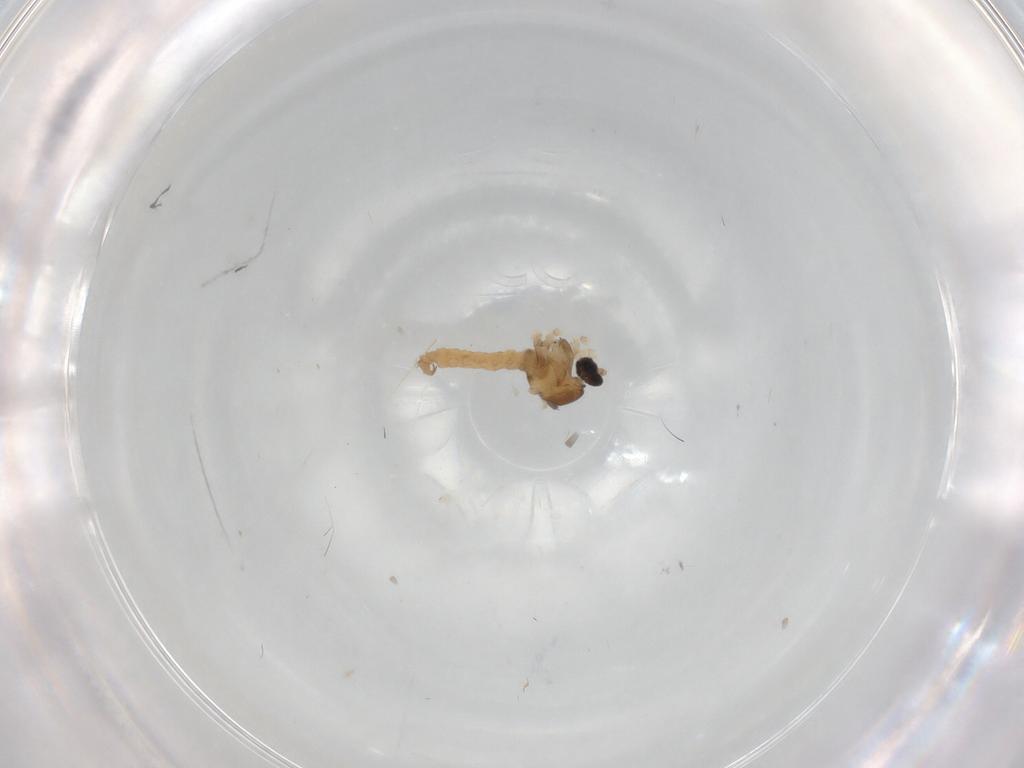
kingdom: Animalia
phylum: Arthropoda
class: Insecta
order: Diptera
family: Cecidomyiidae
